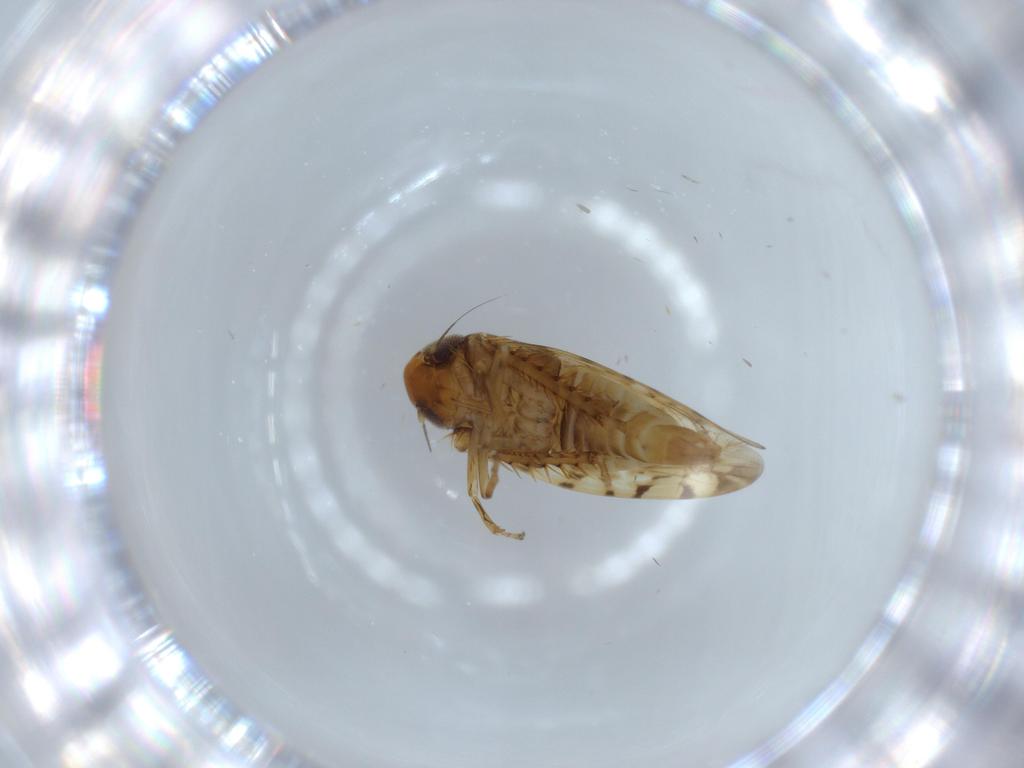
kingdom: Animalia
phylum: Arthropoda
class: Insecta
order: Hemiptera
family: Cicadellidae
